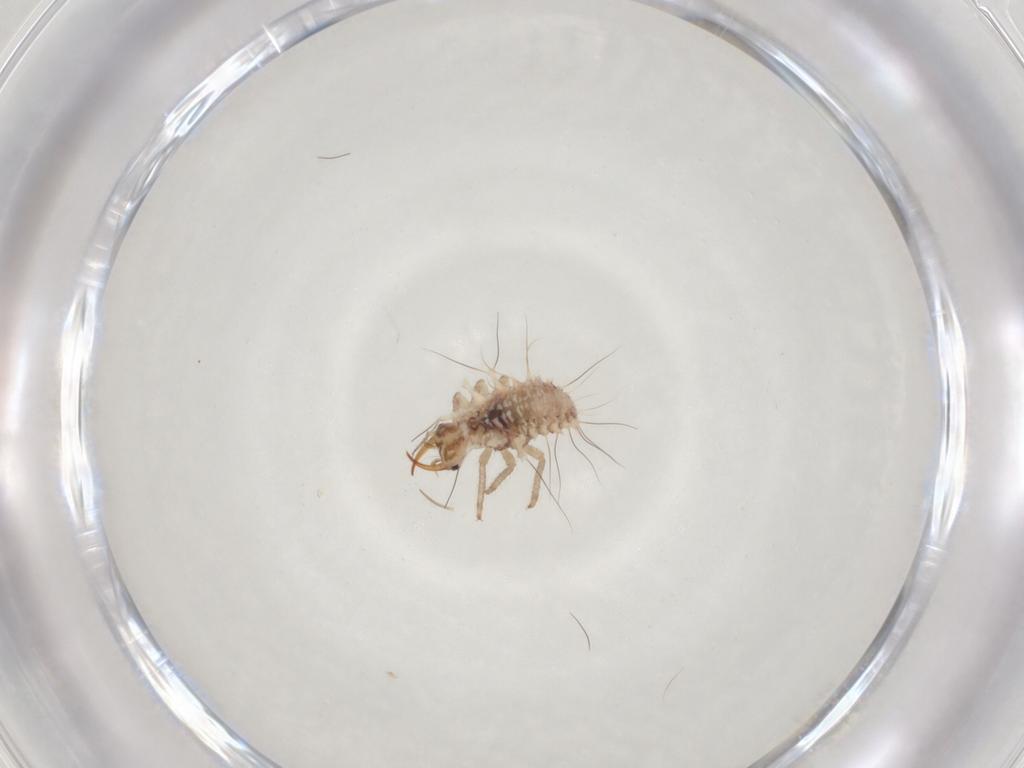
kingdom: Animalia
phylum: Arthropoda
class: Insecta
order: Neuroptera
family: Chrysopidae
